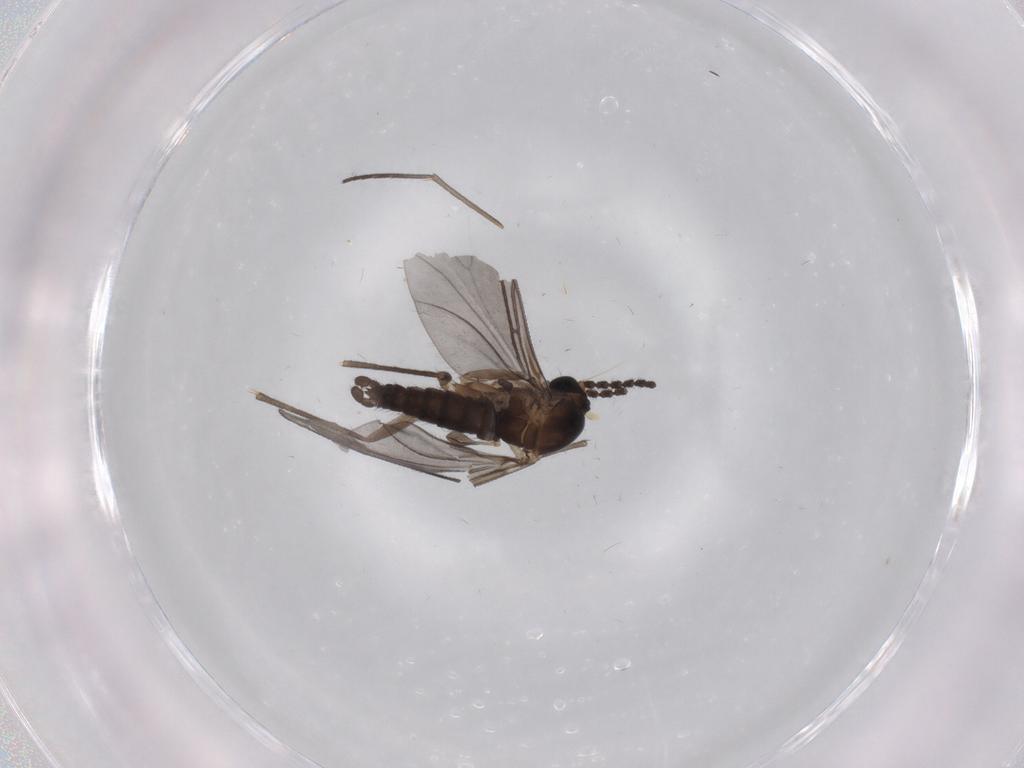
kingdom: Animalia
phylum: Arthropoda
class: Insecta
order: Diptera
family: Sciaridae
